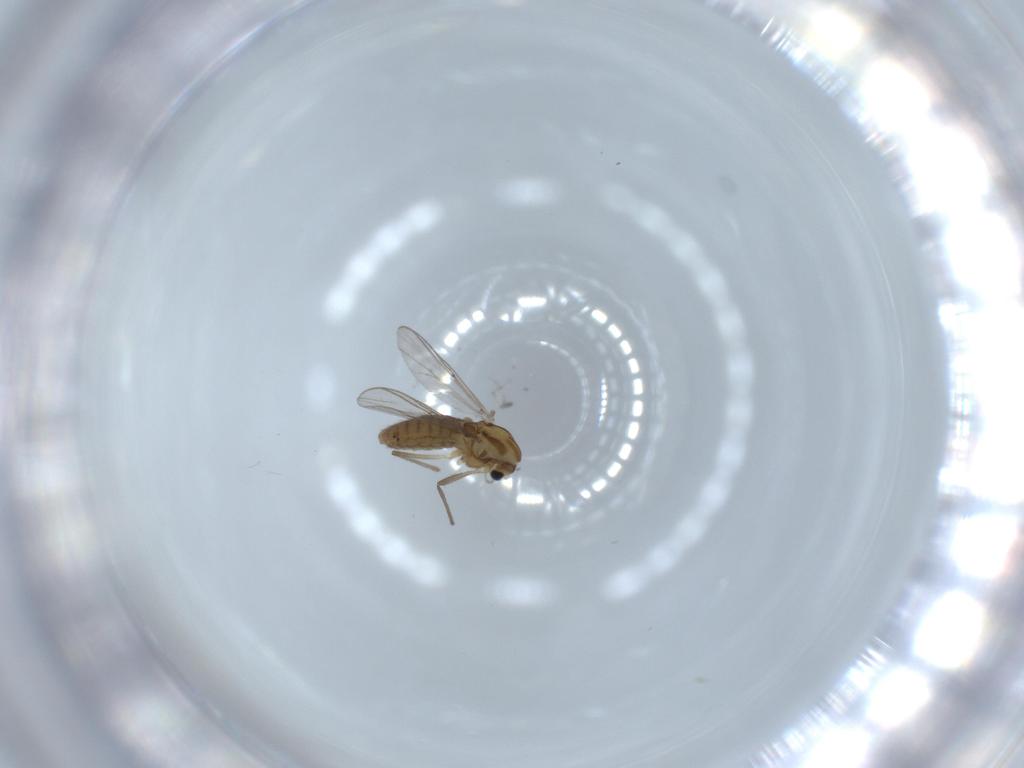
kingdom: Animalia
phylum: Arthropoda
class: Insecta
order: Diptera
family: Chironomidae
